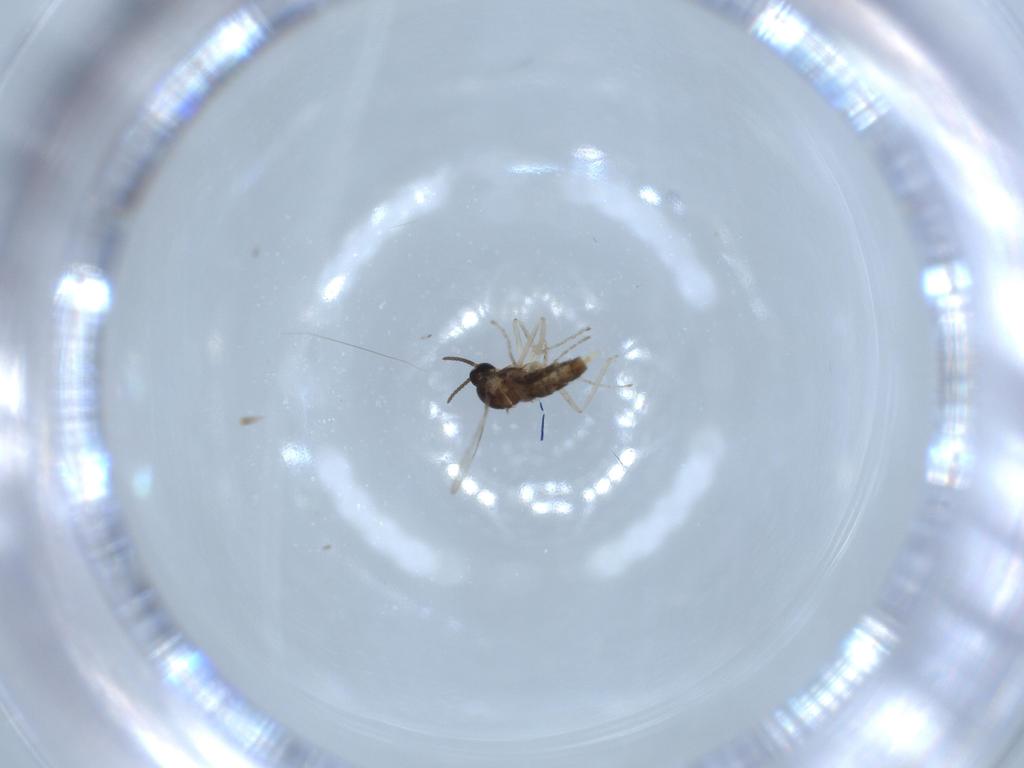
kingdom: Animalia
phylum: Arthropoda
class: Insecta
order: Diptera
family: Cecidomyiidae
